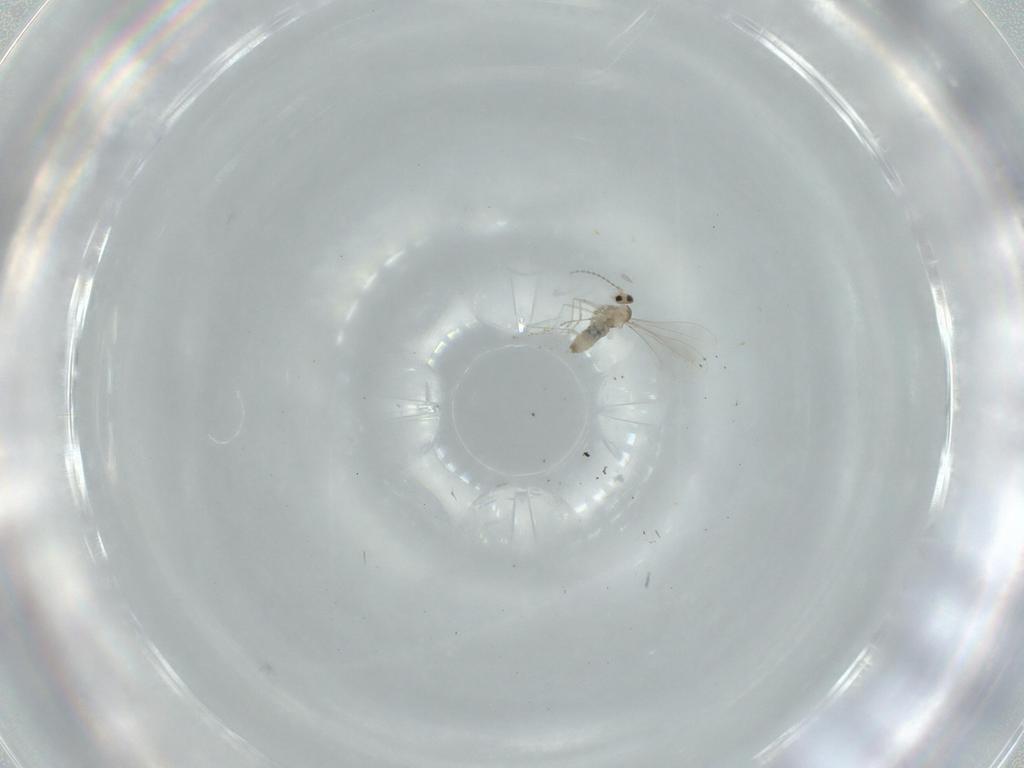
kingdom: Animalia
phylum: Arthropoda
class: Insecta
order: Diptera
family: Cecidomyiidae
